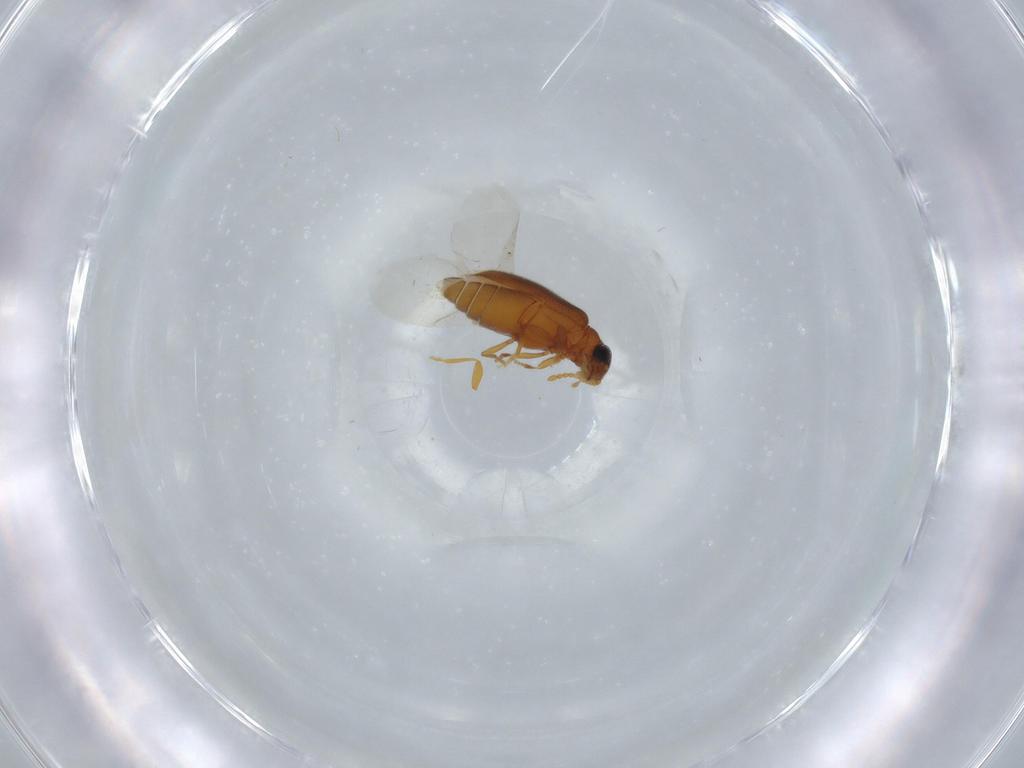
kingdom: Animalia
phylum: Arthropoda
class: Insecta
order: Coleoptera
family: Aderidae
